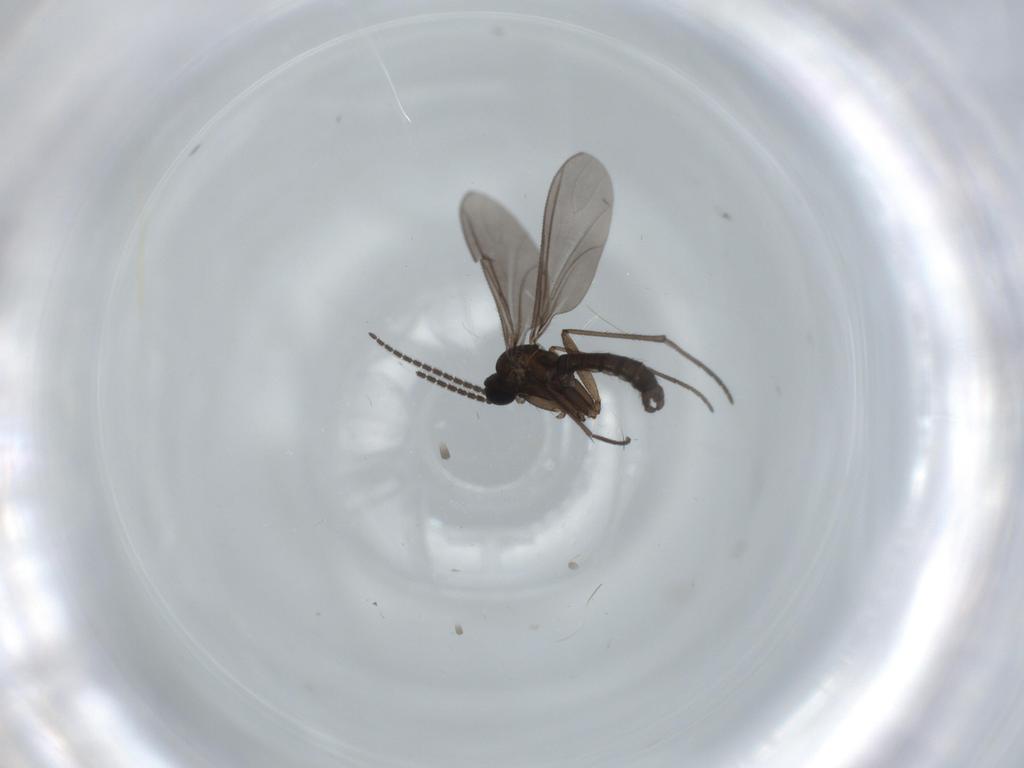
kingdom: Animalia
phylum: Arthropoda
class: Insecta
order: Diptera
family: Sciaridae
